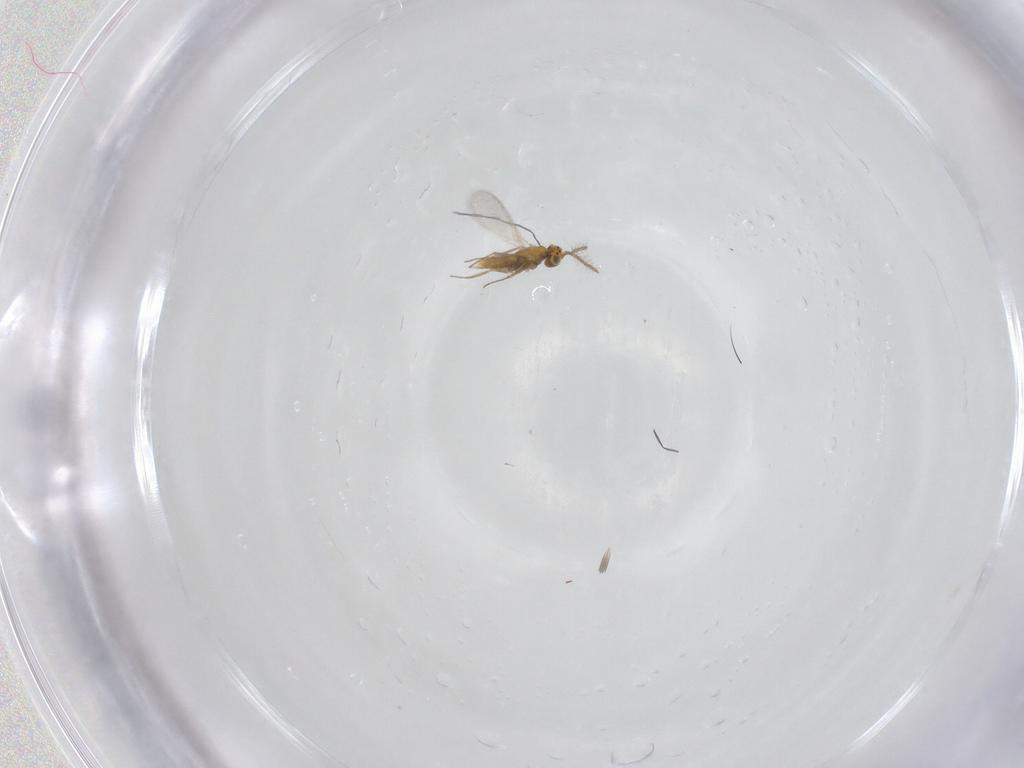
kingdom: Animalia
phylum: Arthropoda
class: Insecta
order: Hymenoptera
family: Aphelinidae
